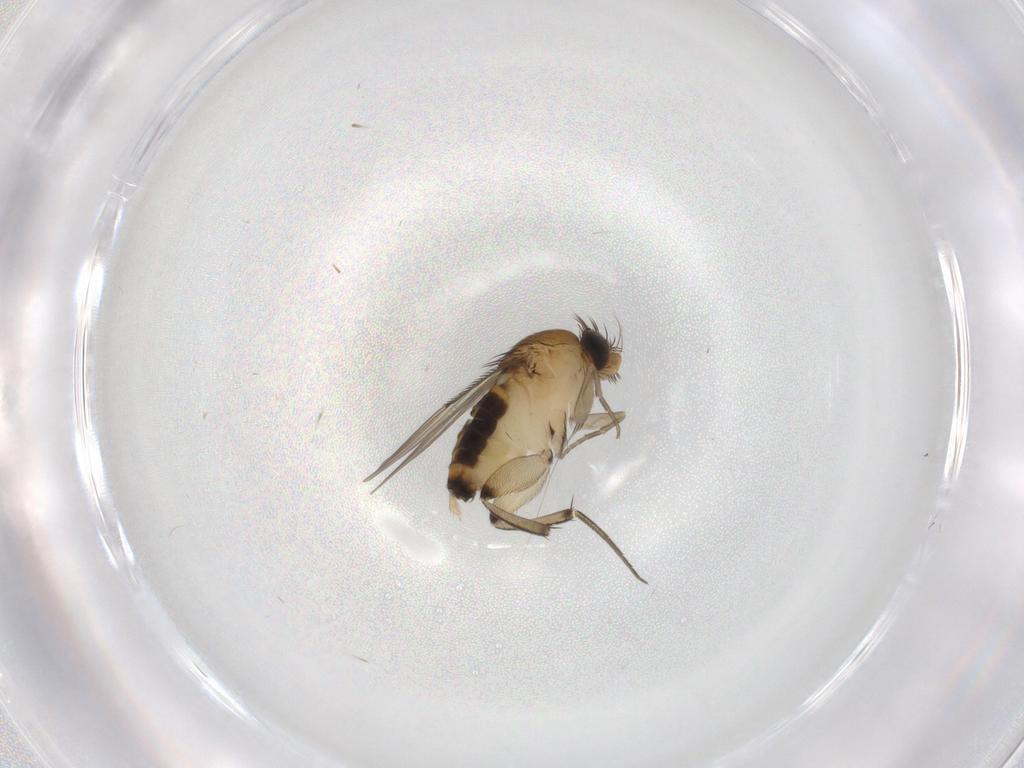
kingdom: Animalia
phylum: Arthropoda
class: Insecta
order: Diptera
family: Phoridae
